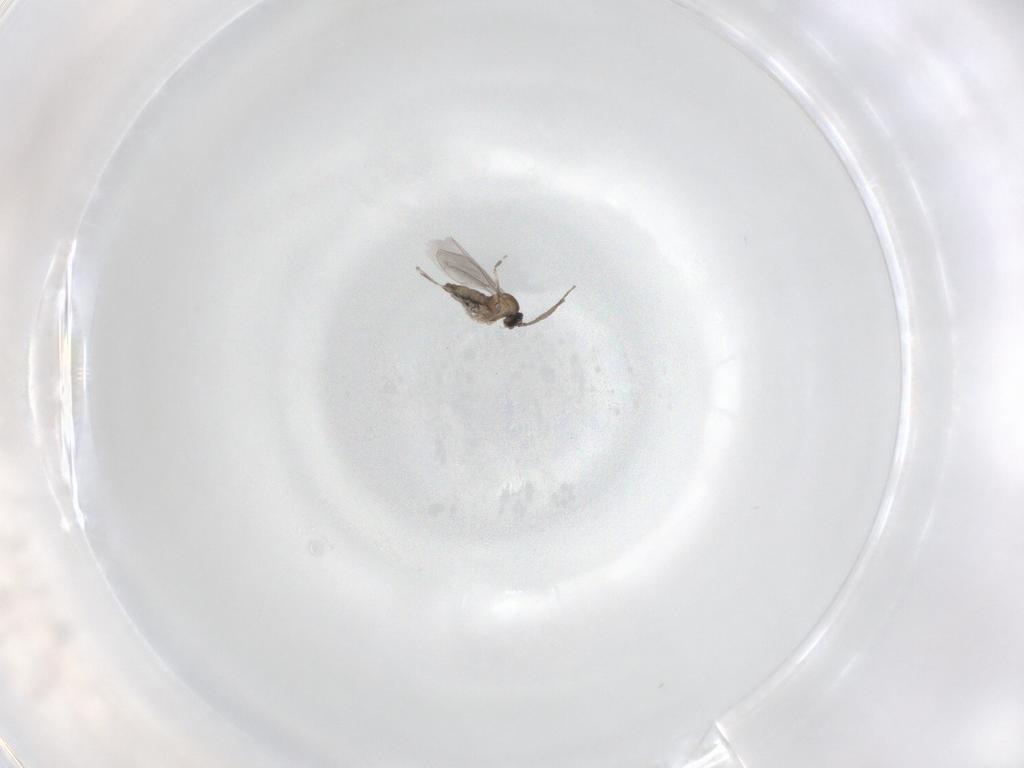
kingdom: Animalia
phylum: Arthropoda
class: Insecta
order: Diptera
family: Cecidomyiidae
